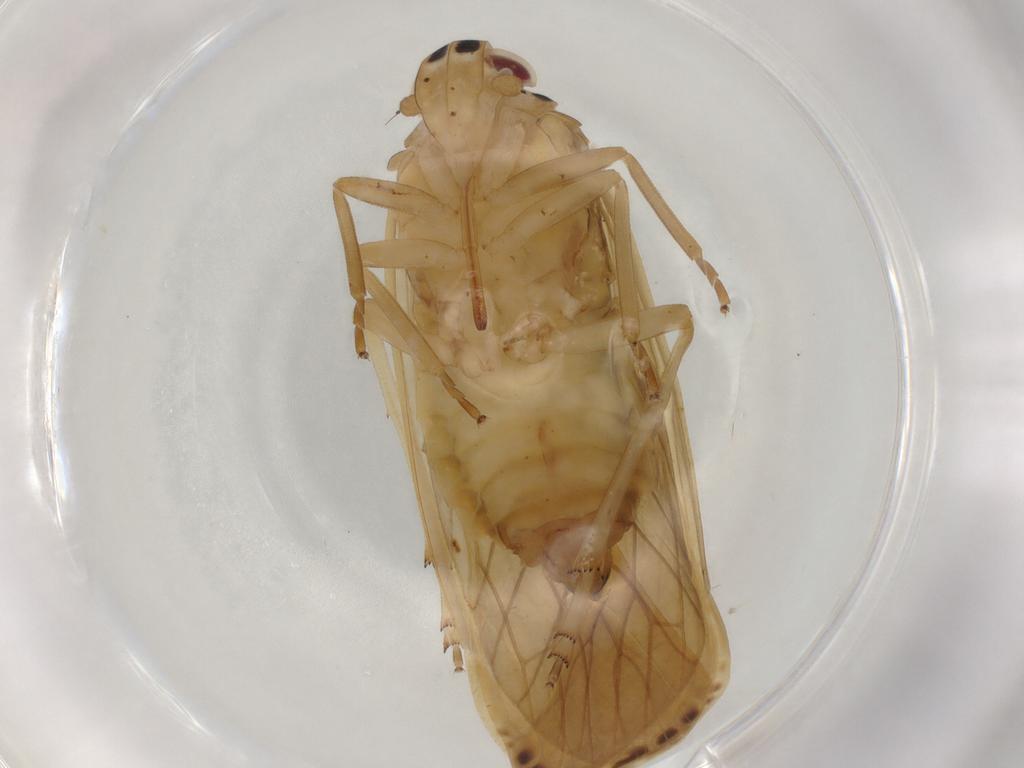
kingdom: Animalia
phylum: Arthropoda
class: Insecta
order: Hemiptera
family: Achilidae
